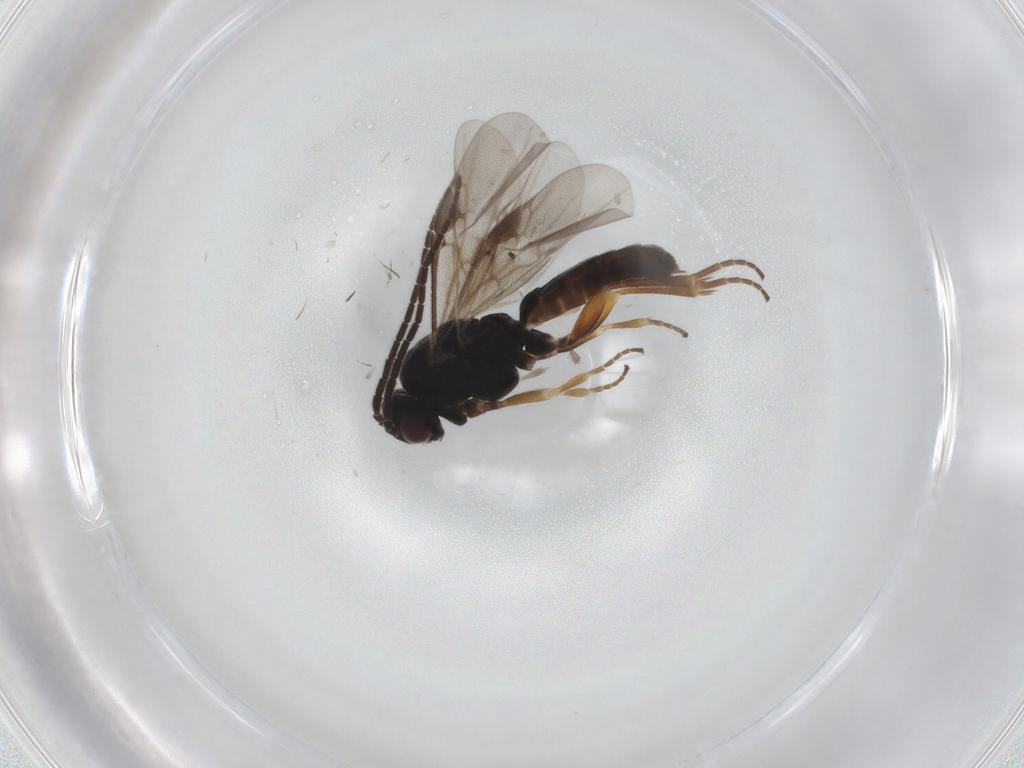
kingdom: Animalia
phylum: Arthropoda
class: Insecta
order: Hymenoptera
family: Braconidae
